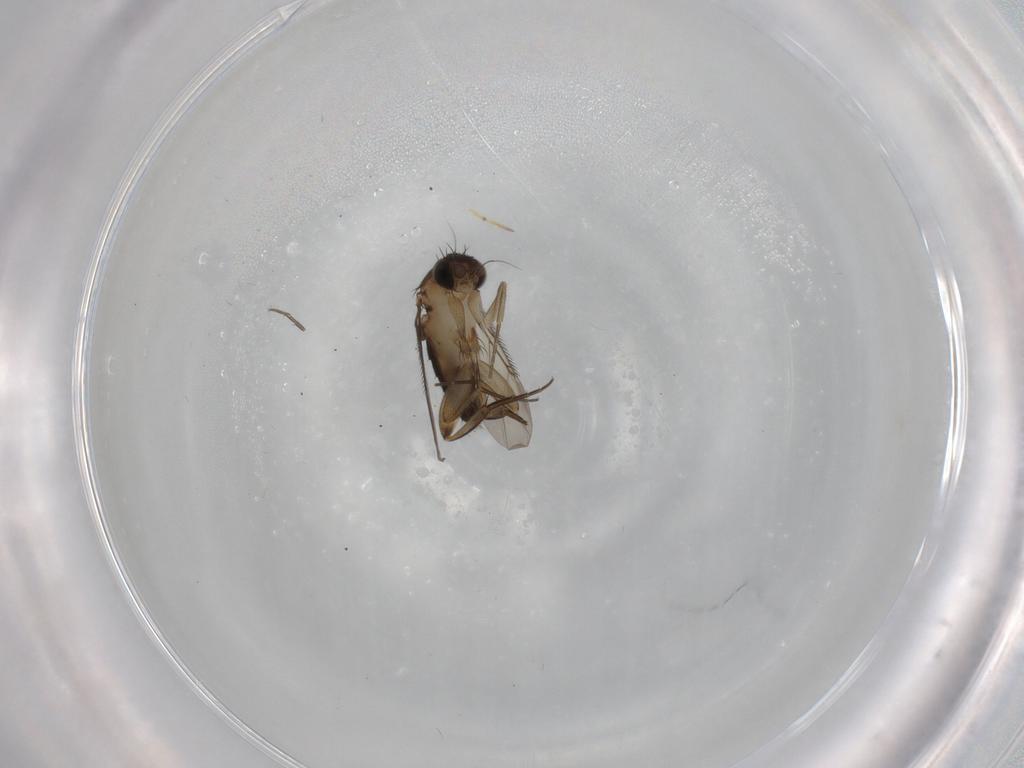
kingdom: Animalia
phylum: Arthropoda
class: Insecta
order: Diptera
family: Phoridae
